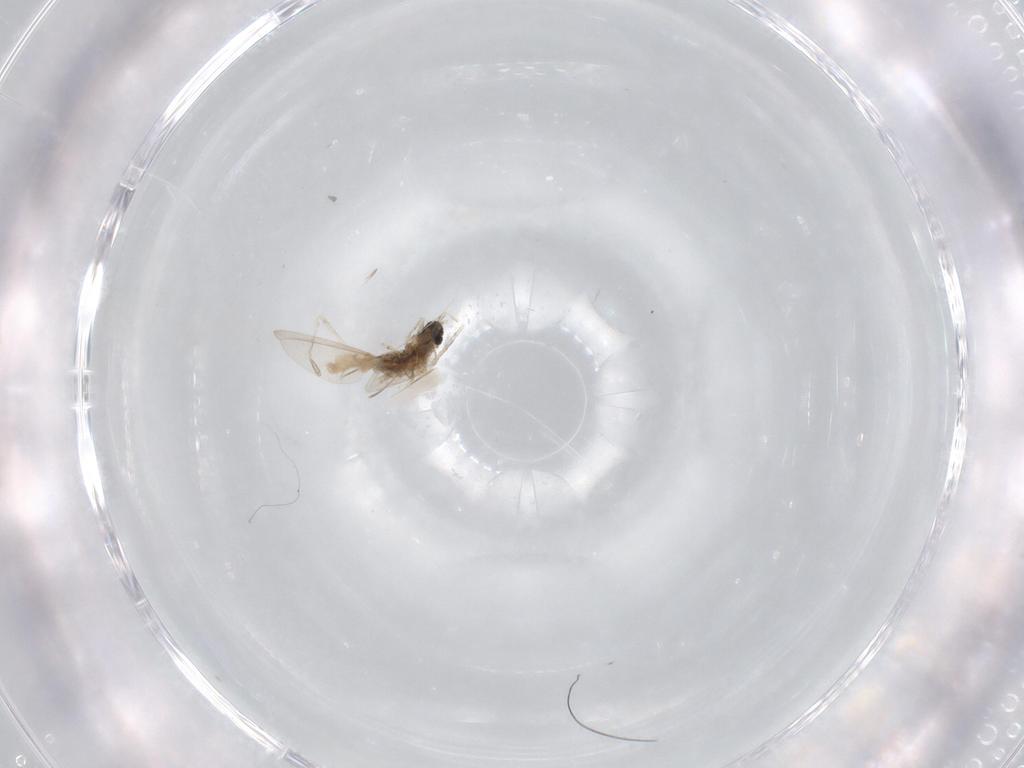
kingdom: Animalia
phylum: Arthropoda
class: Insecta
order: Diptera
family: Cecidomyiidae
